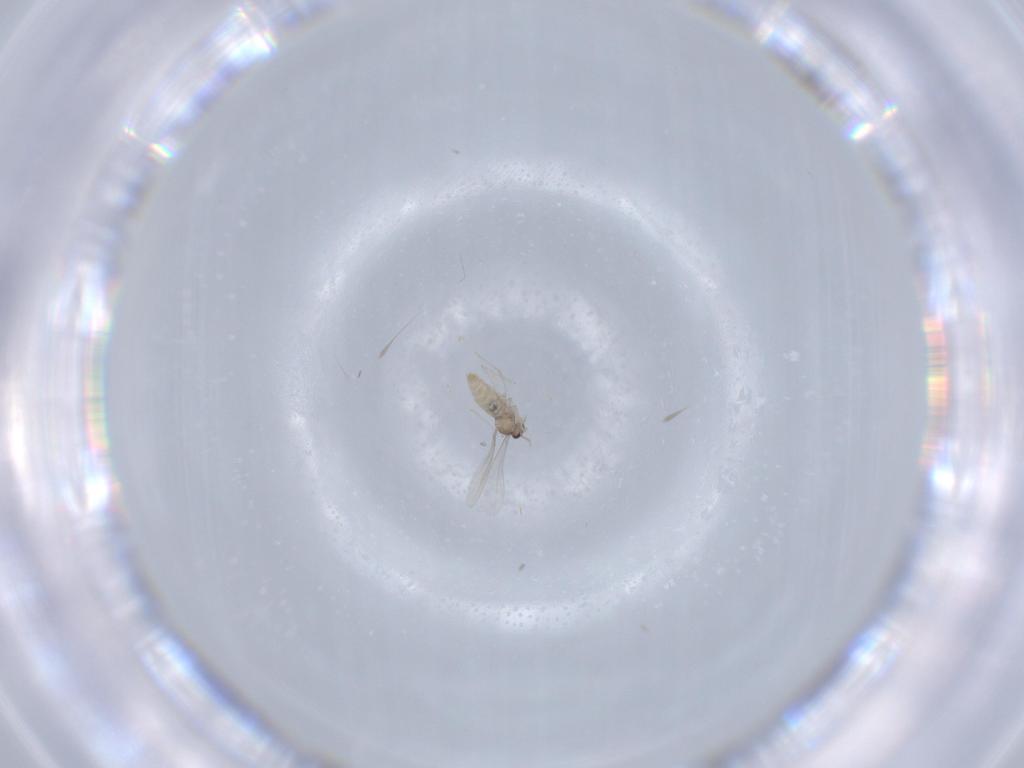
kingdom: Animalia
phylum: Arthropoda
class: Insecta
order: Diptera
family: Cecidomyiidae
